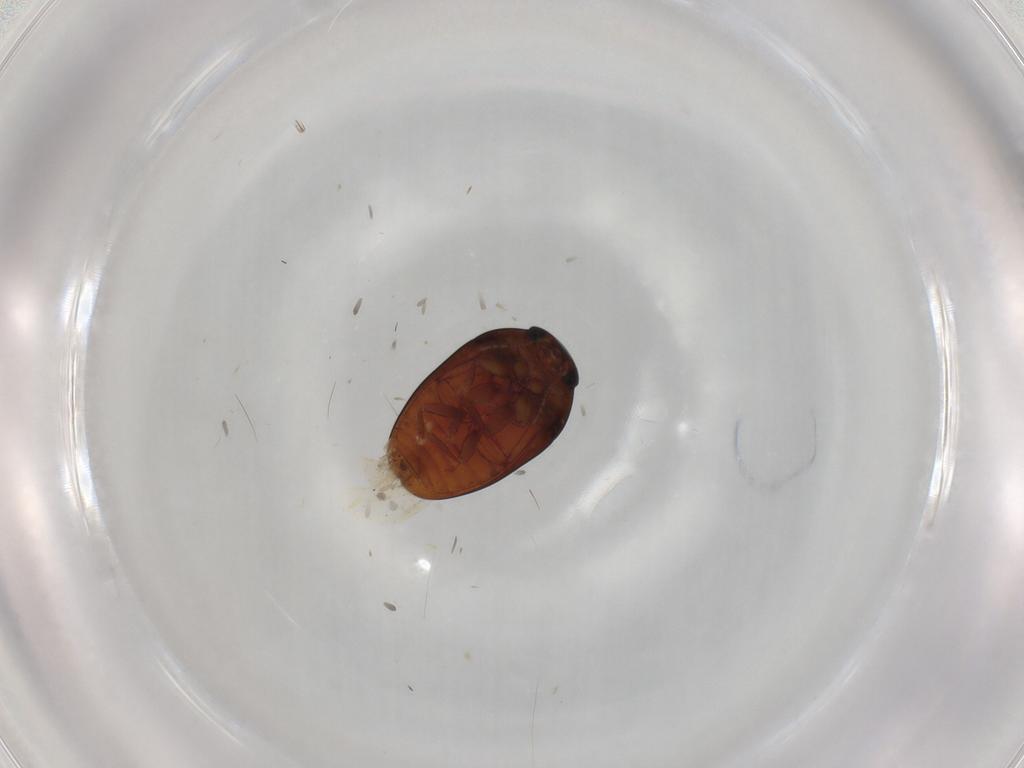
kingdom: Animalia
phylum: Arthropoda
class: Insecta
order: Coleoptera
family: Phalacridae
